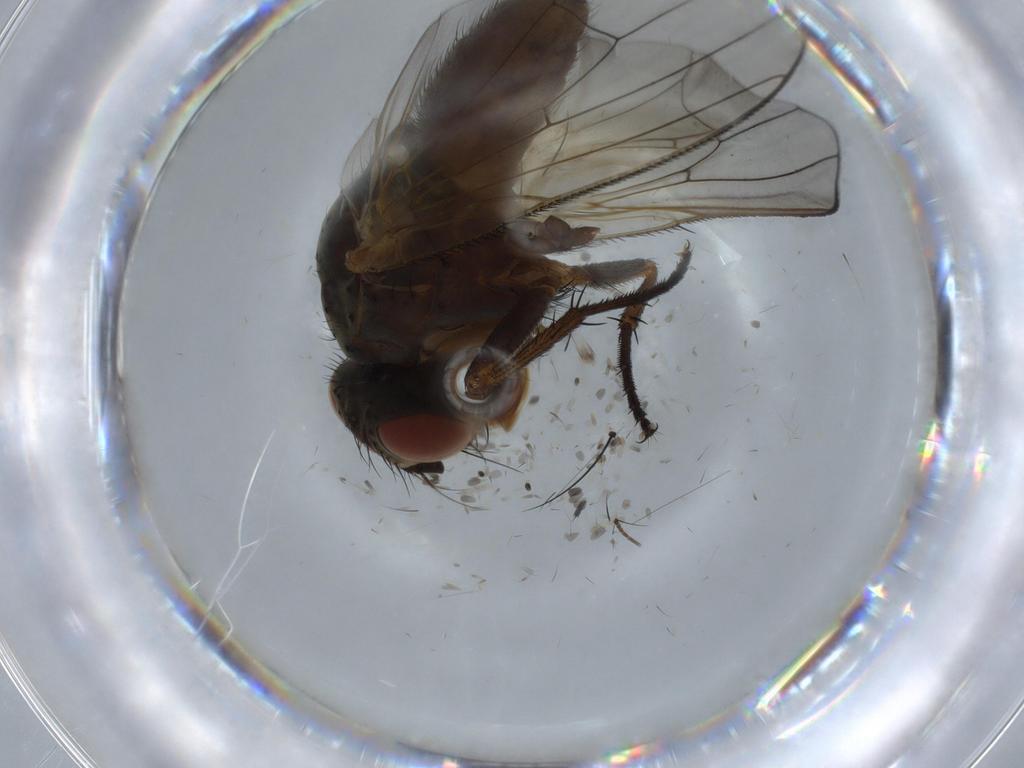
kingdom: Animalia
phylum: Arthropoda
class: Insecta
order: Diptera
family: Anthomyiidae
